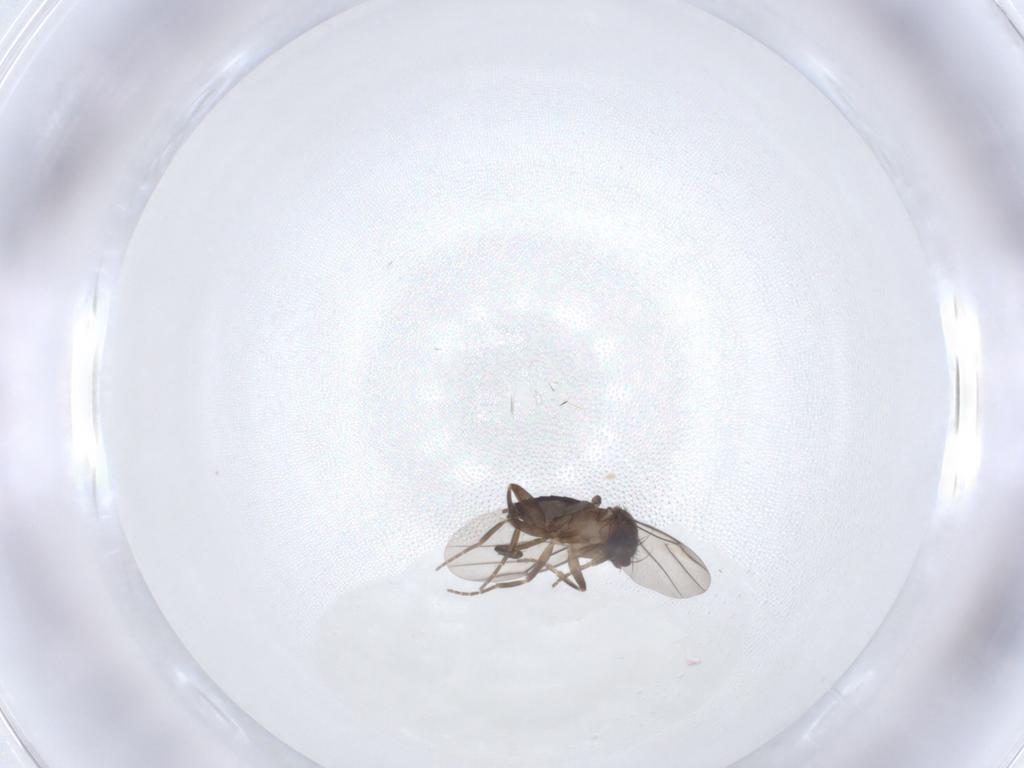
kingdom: Animalia
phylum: Arthropoda
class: Insecta
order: Diptera
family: Phoridae
